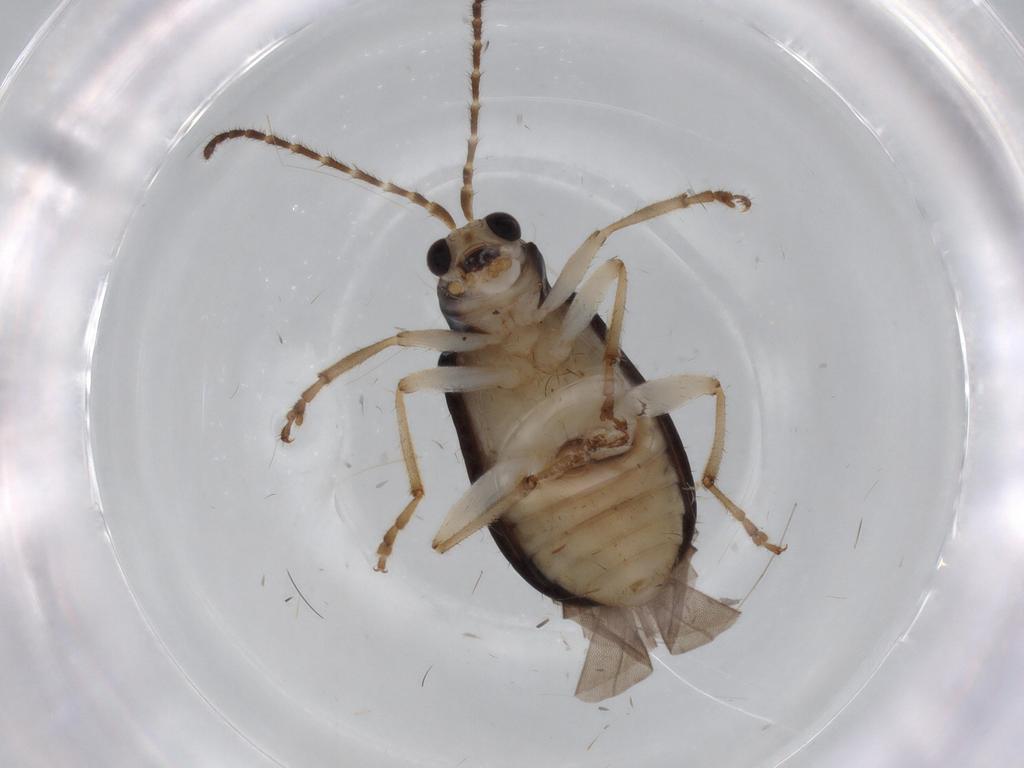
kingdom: Animalia
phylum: Arthropoda
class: Insecta
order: Coleoptera
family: Chrysomelidae
